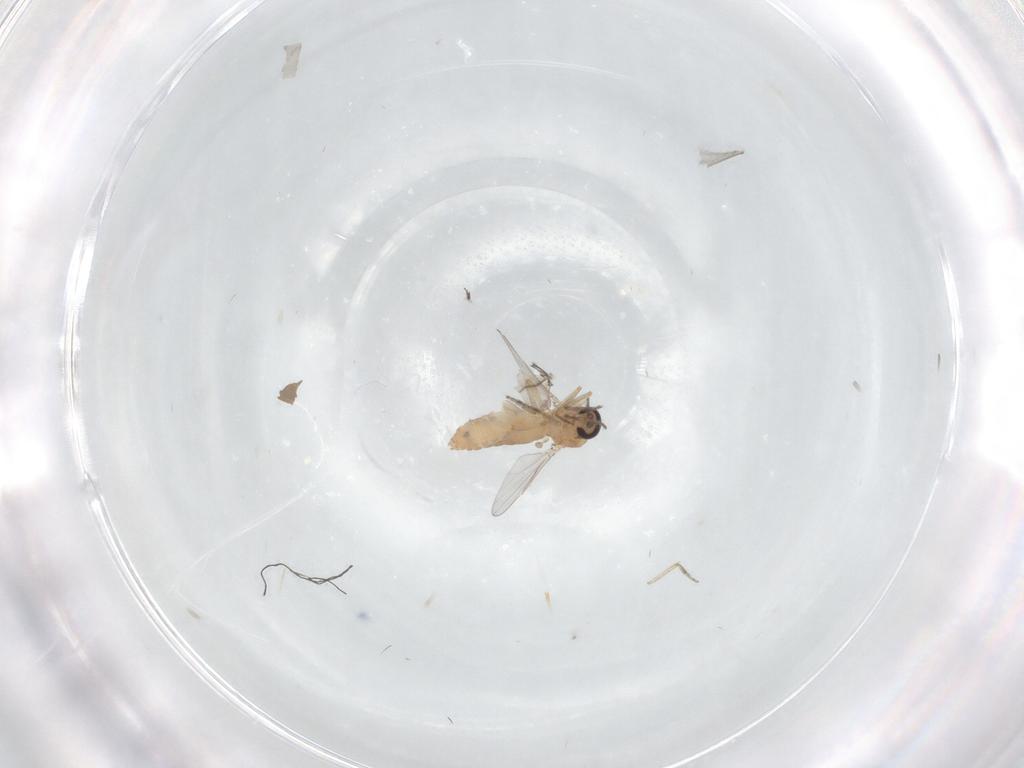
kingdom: Animalia
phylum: Arthropoda
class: Insecta
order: Diptera
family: Ceratopogonidae
